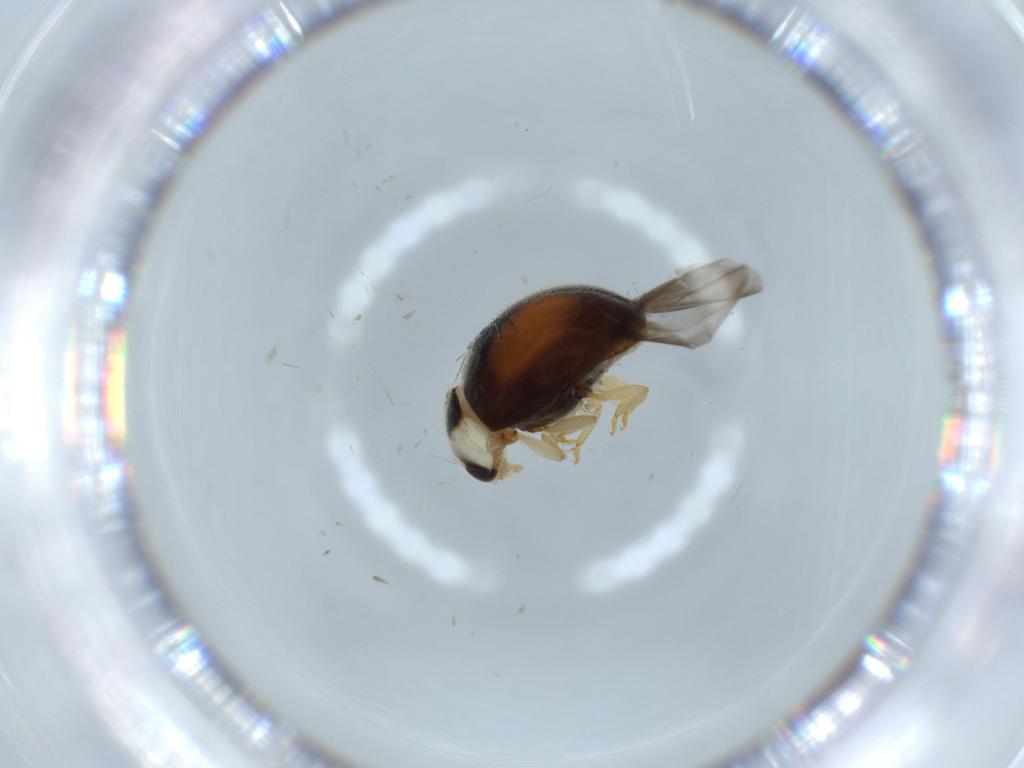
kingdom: Animalia
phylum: Arthropoda
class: Insecta
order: Coleoptera
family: Coccinellidae
